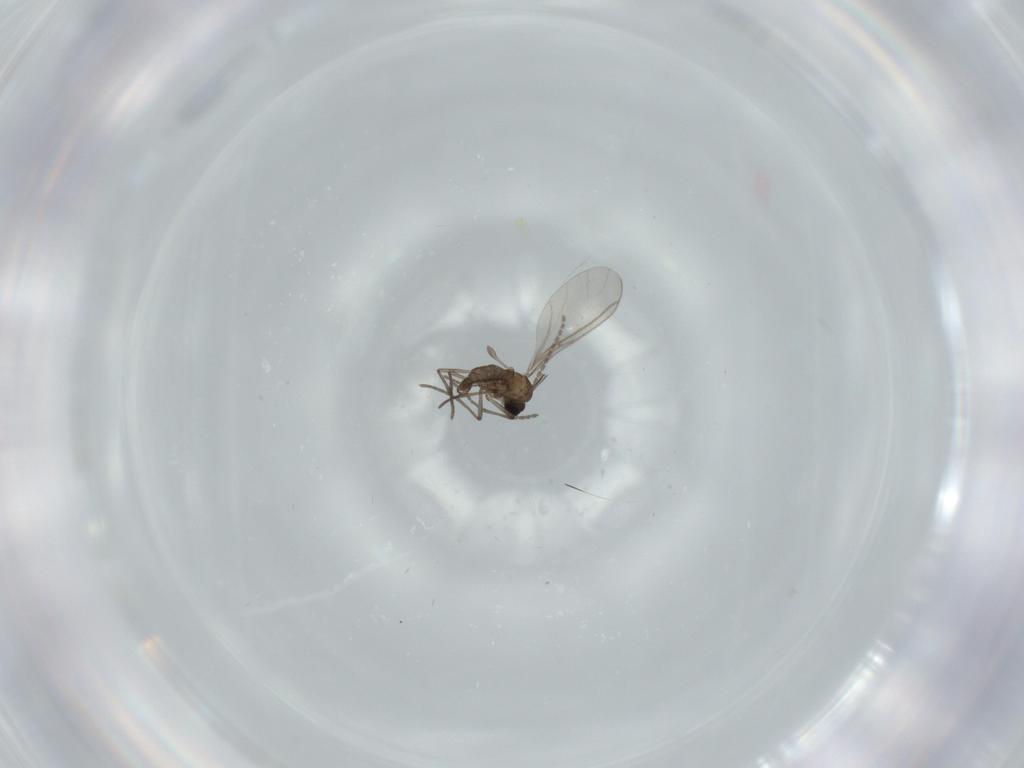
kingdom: Animalia
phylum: Arthropoda
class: Insecta
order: Diptera
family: Sciaridae
